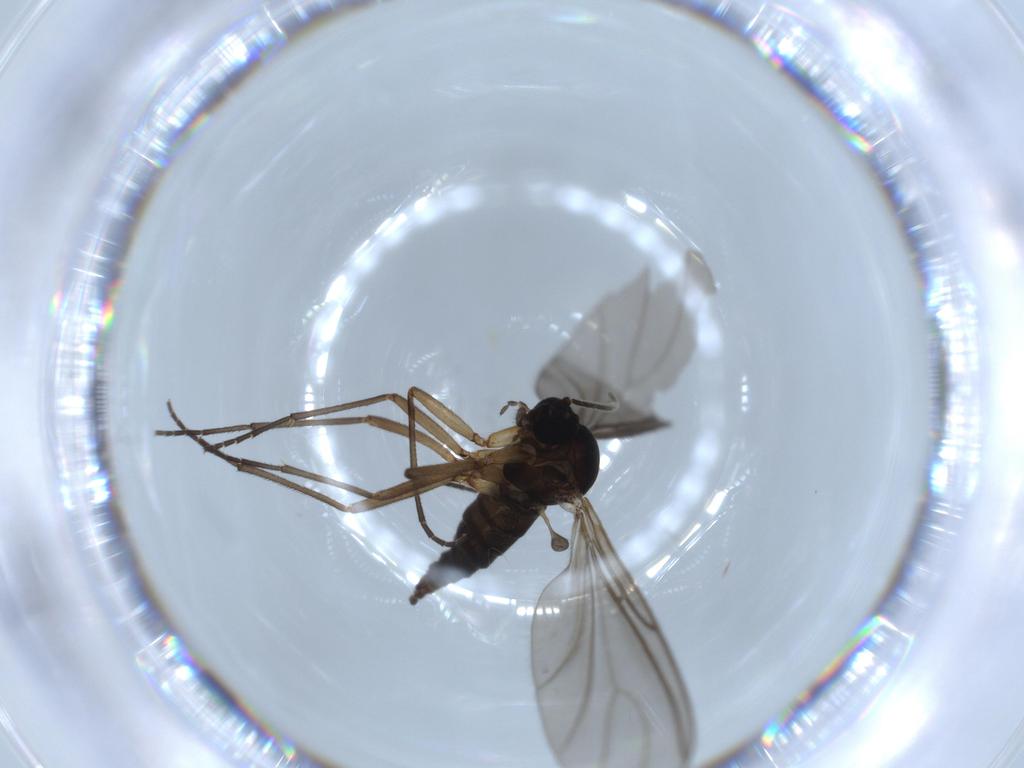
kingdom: Animalia
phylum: Arthropoda
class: Insecta
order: Diptera
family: Sciaridae
